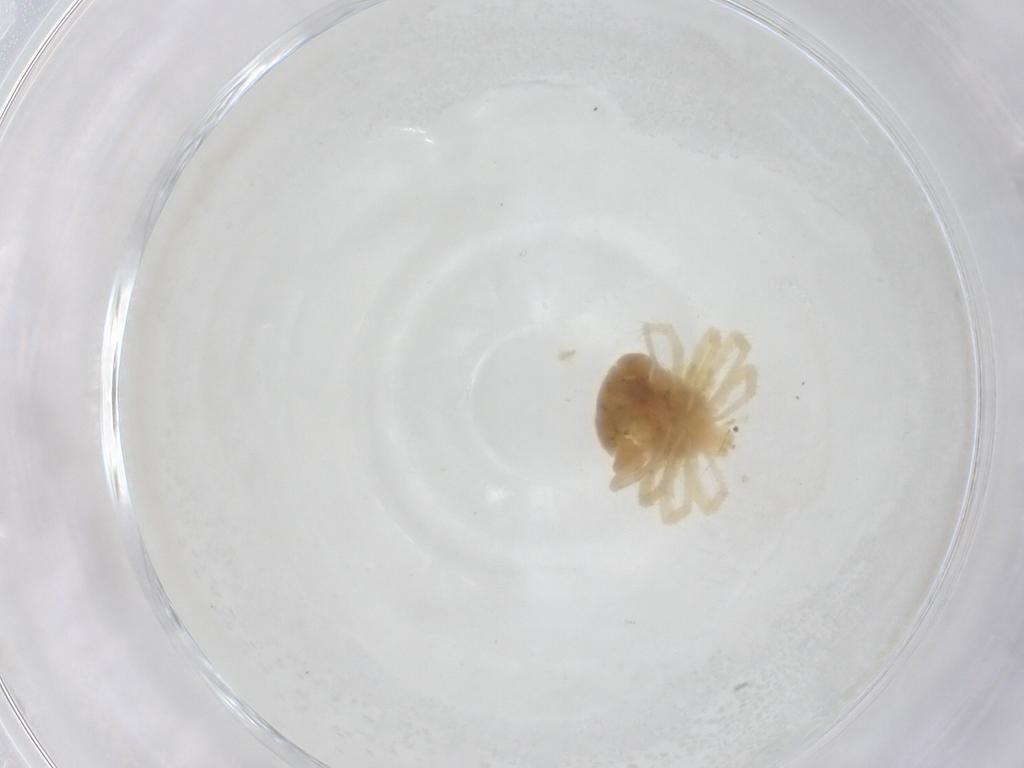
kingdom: Animalia
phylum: Arthropoda
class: Arachnida
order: Trombidiformes
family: Anystidae
